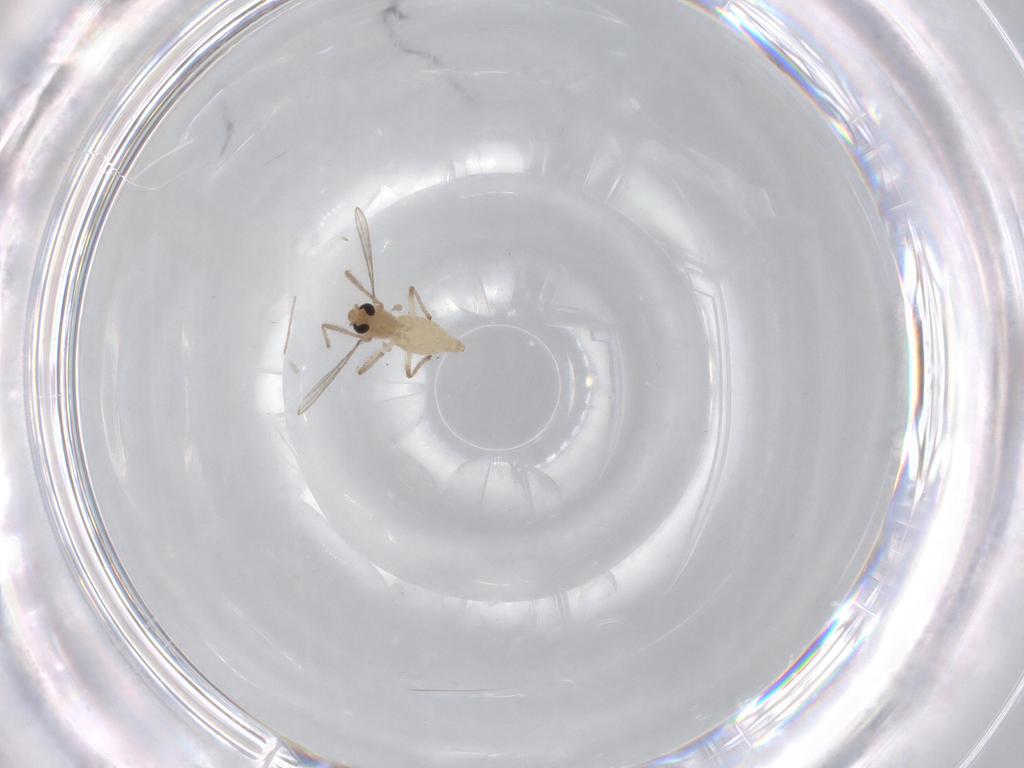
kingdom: Animalia
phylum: Arthropoda
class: Insecta
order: Diptera
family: Chironomidae
